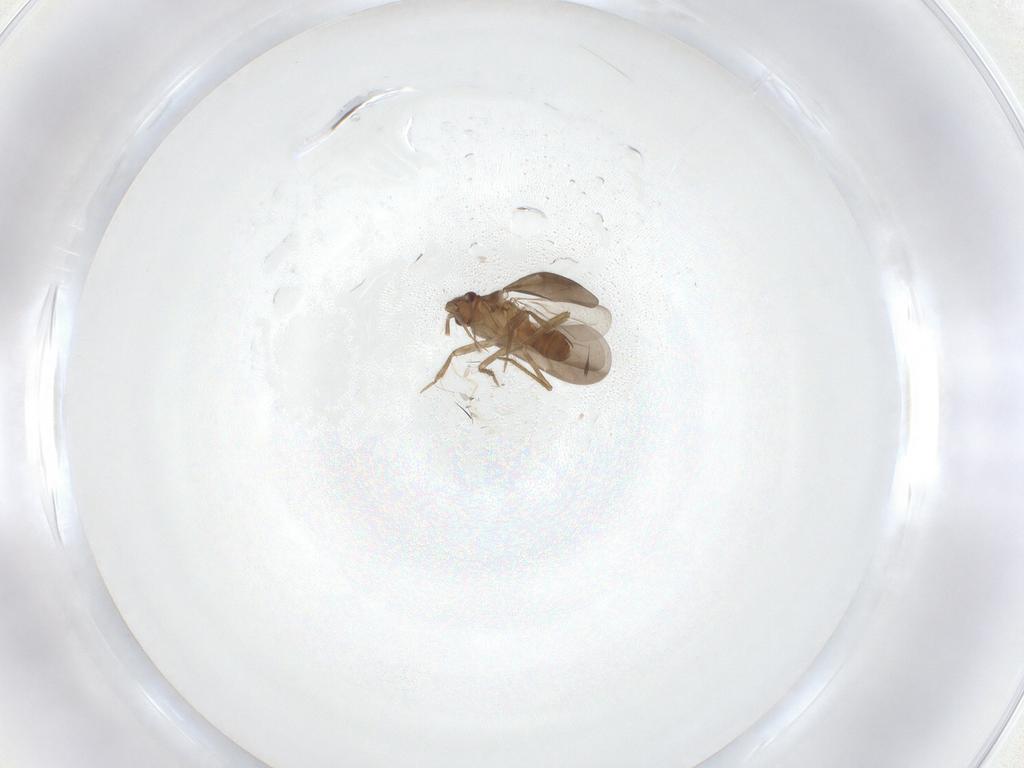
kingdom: Animalia
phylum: Arthropoda
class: Insecta
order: Hemiptera
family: Ceratocombidae
